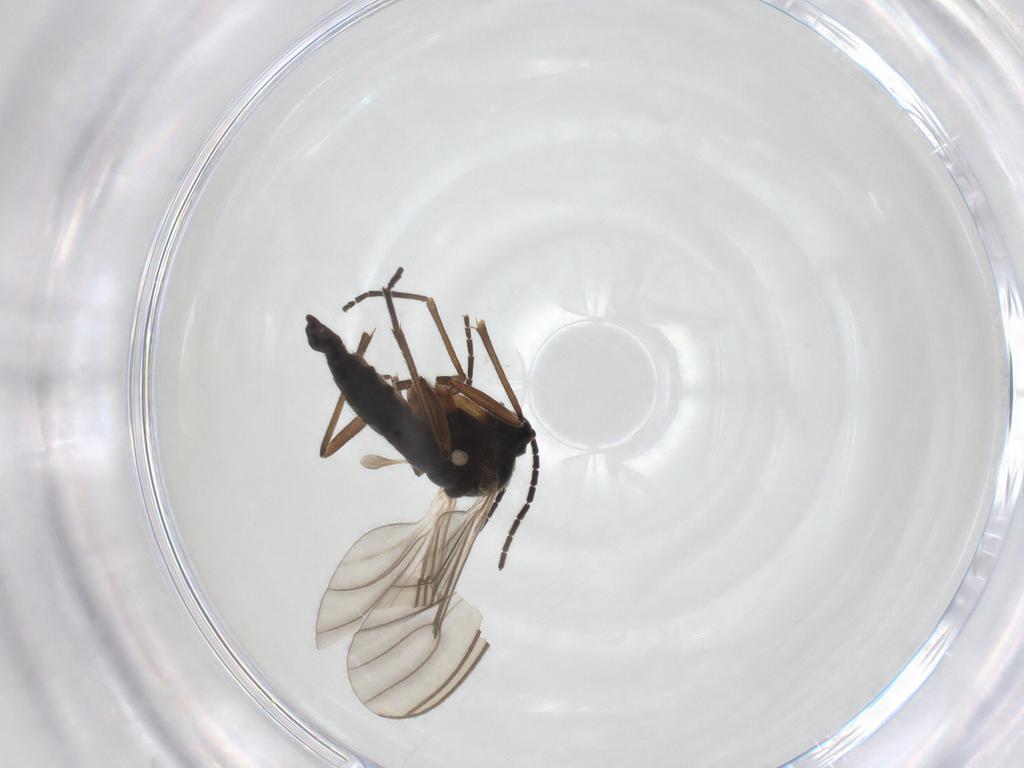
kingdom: Animalia
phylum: Arthropoda
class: Insecta
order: Diptera
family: Sciaridae
